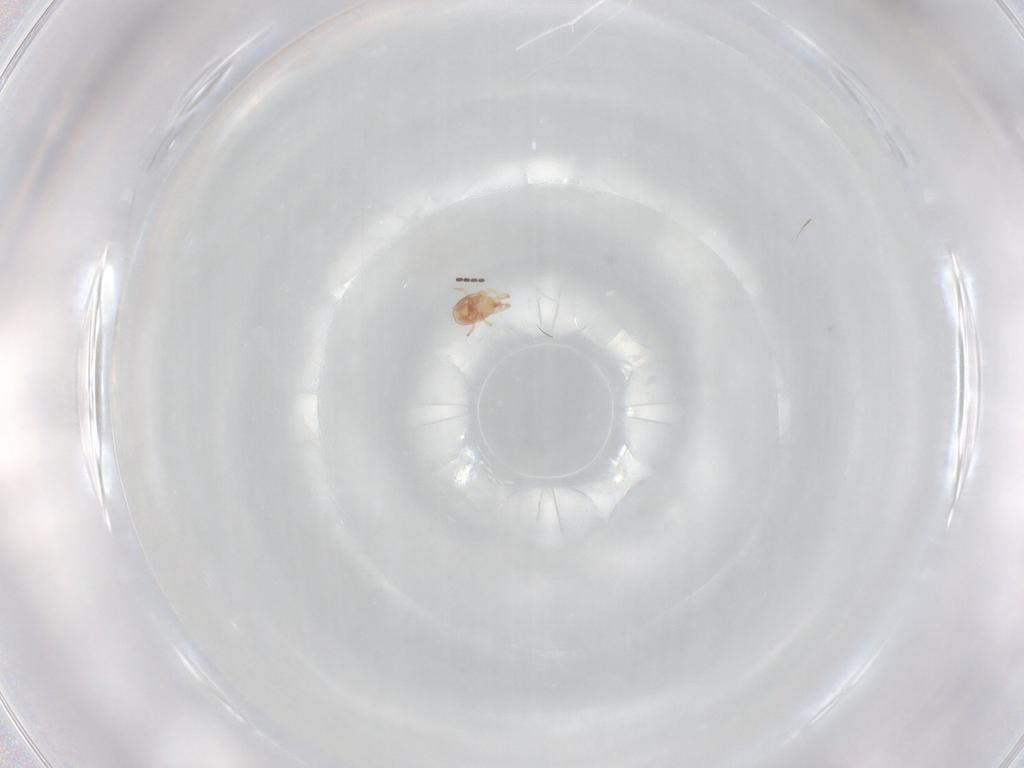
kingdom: Animalia
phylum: Arthropoda
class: Arachnida
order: Mesostigmata
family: Phytoseiidae
